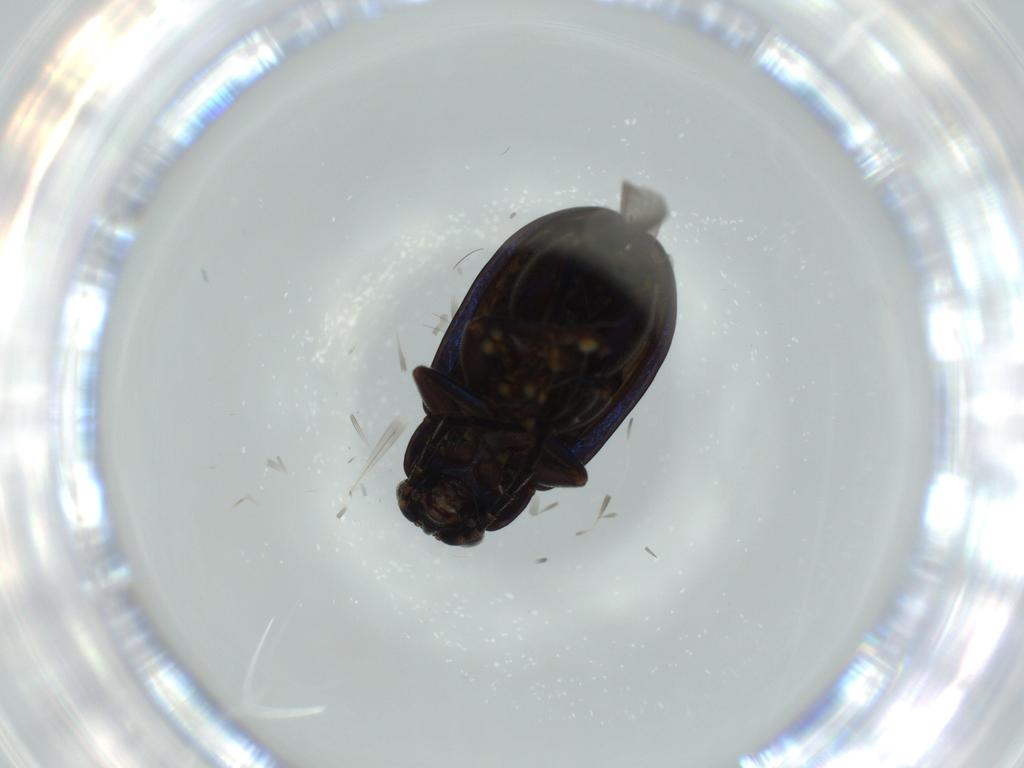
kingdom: Animalia
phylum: Arthropoda
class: Insecta
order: Coleoptera
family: Chrysomelidae
